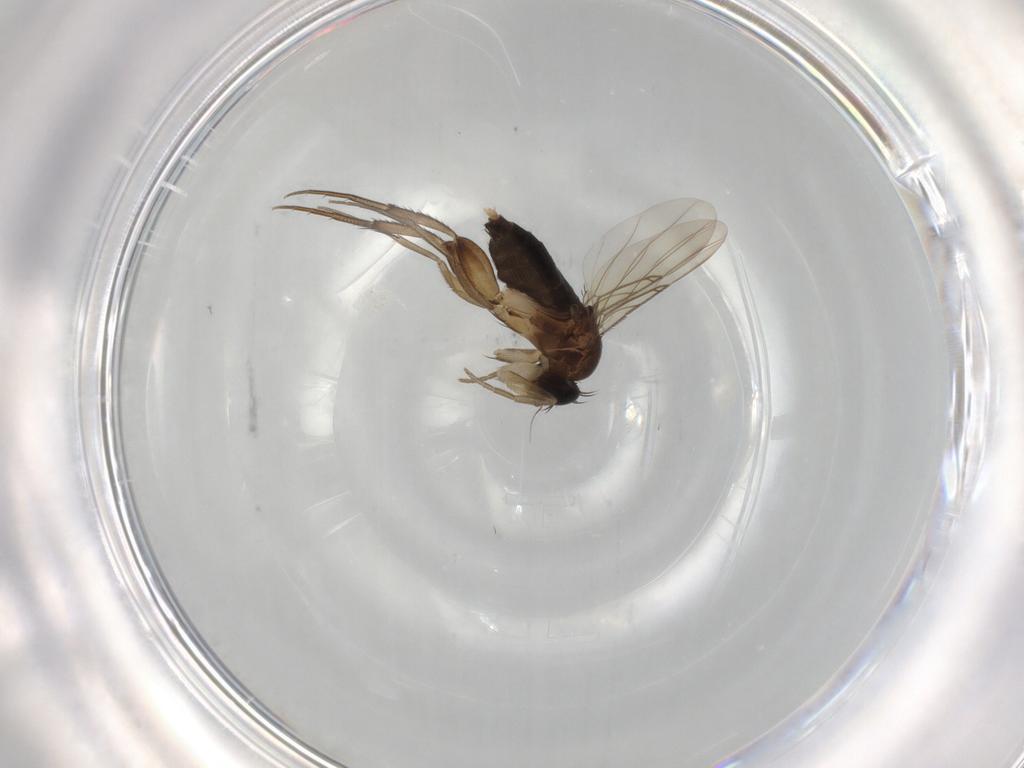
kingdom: Animalia
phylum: Arthropoda
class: Insecta
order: Diptera
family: Phoridae
